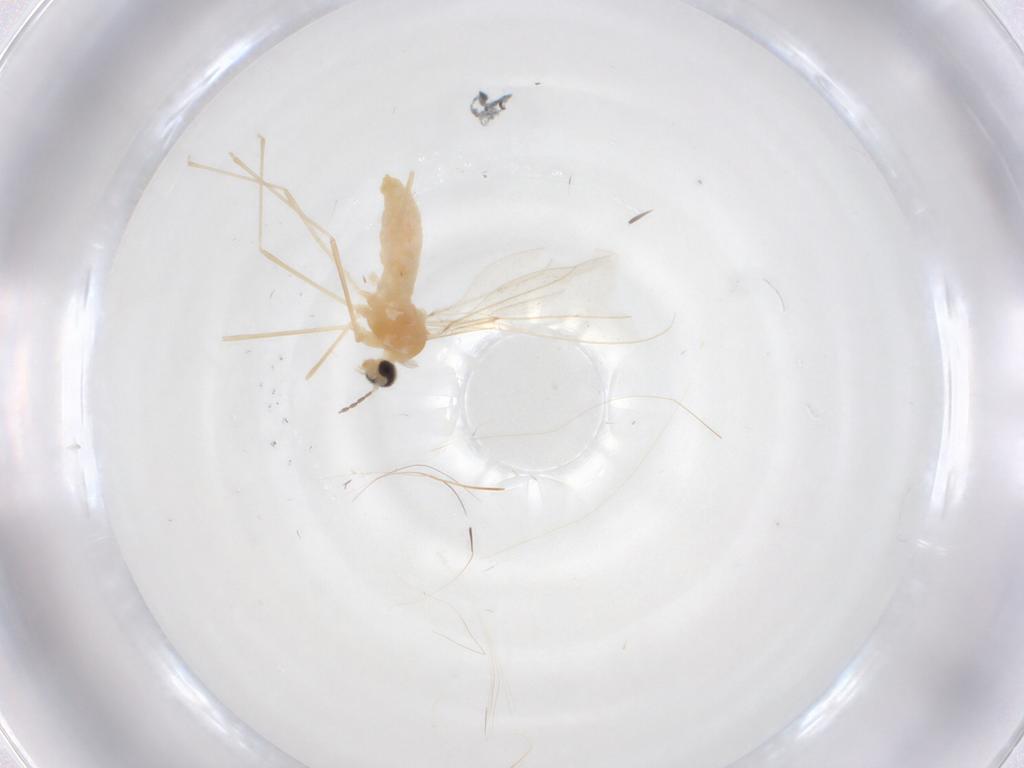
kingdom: Animalia
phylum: Arthropoda
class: Insecta
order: Diptera
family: Cecidomyiidae
